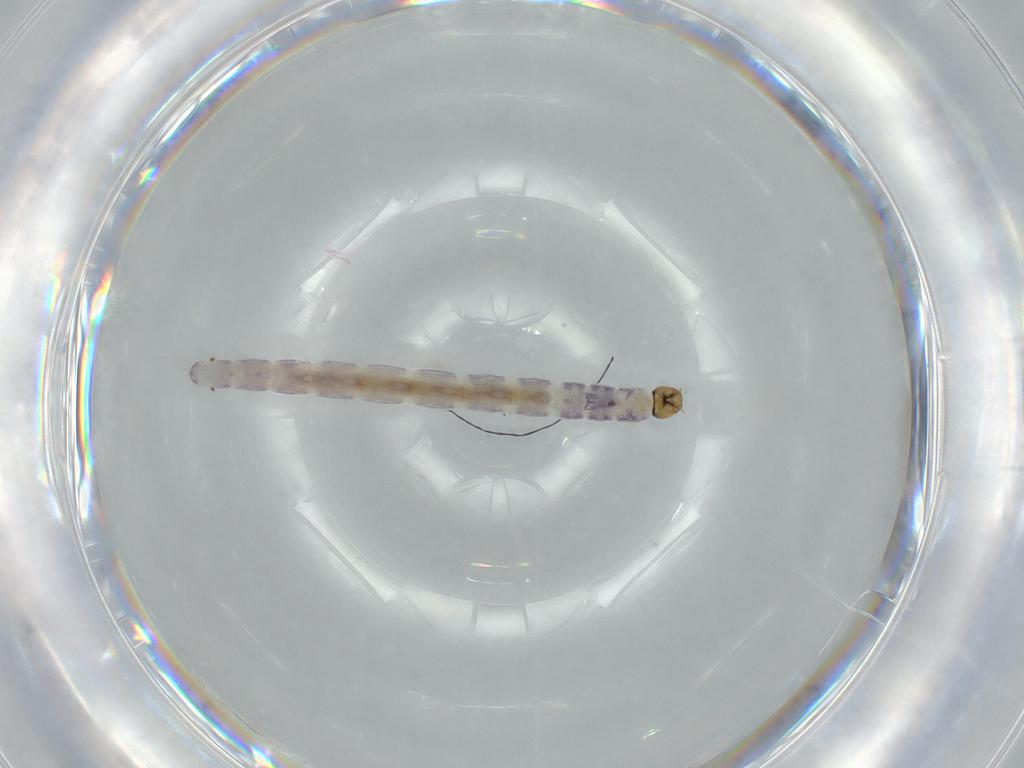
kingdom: Animalia
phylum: Arthropoda
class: Insecta
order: Diptera
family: Chironomidae
